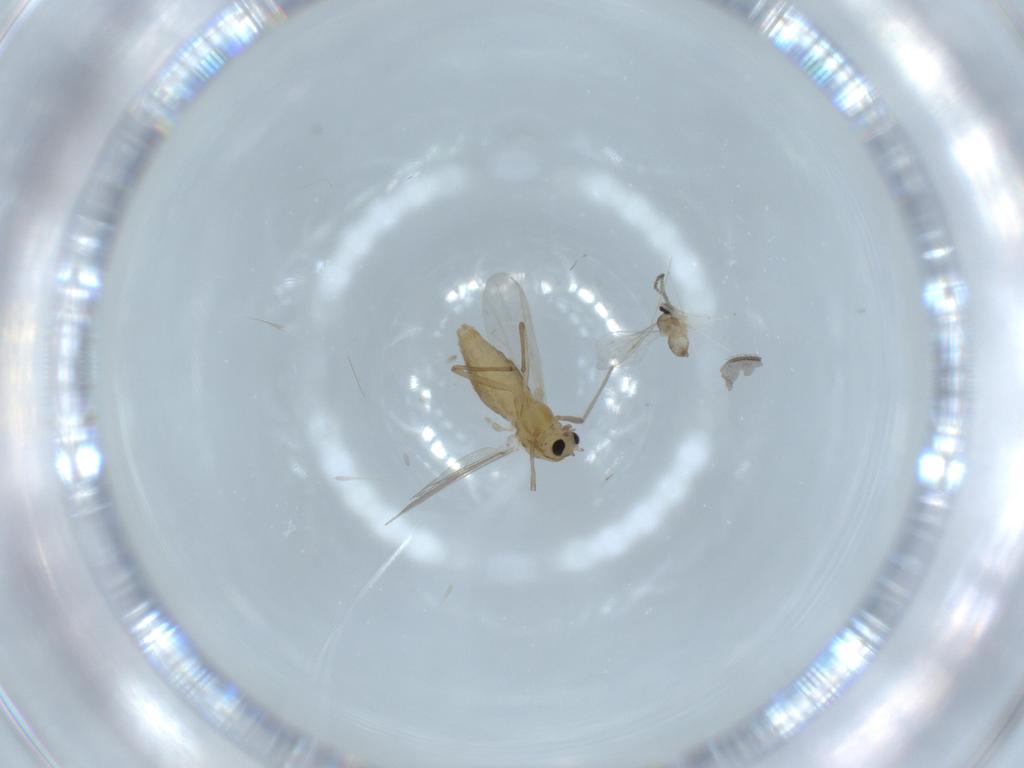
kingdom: Animalia
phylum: Arthropoda
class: Insecta
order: Diptera
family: Chironomidae
